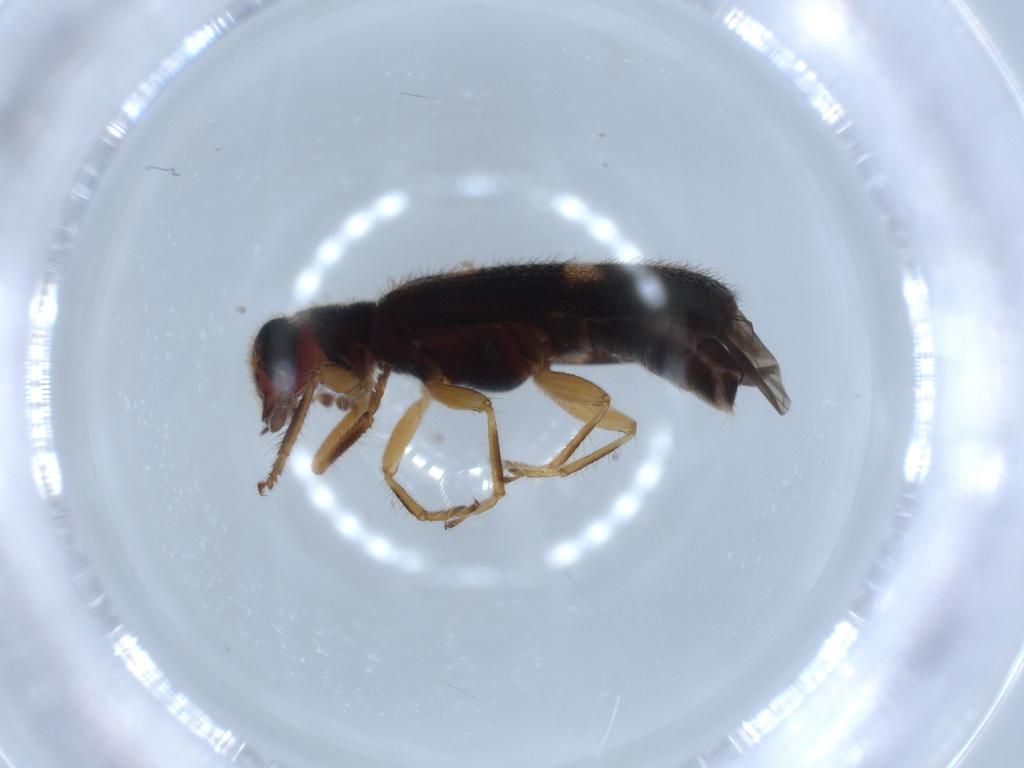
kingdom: Animalia
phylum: Arthropoda
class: Insecta
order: Coleoptera
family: Cleridae
